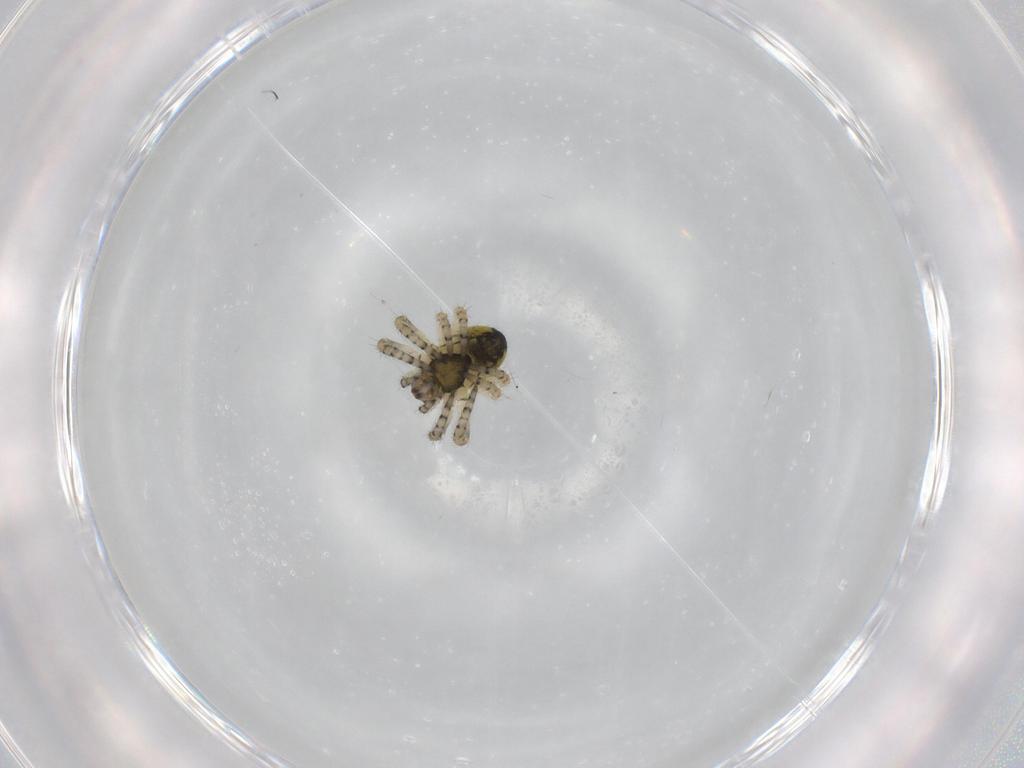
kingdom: Animalia
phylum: Arthropoda
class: Arachnida
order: Araneae
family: Araneidae
